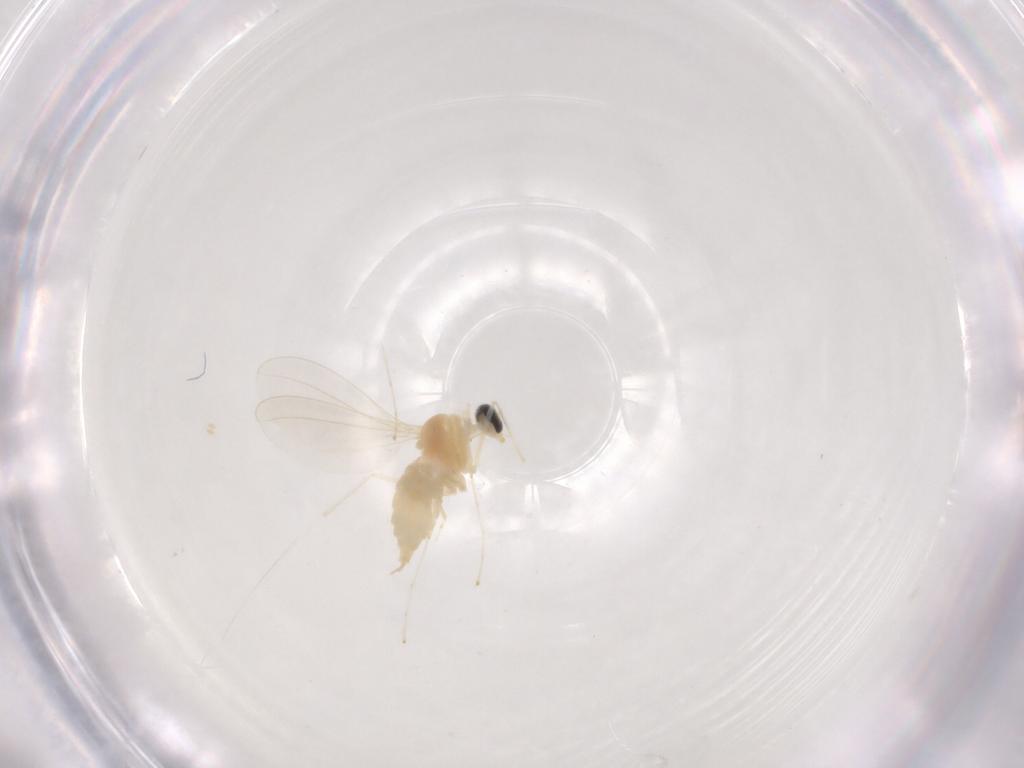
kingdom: Animalia
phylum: Arthropoda
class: Insecta
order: Diptera
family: Cecidomyiidae
